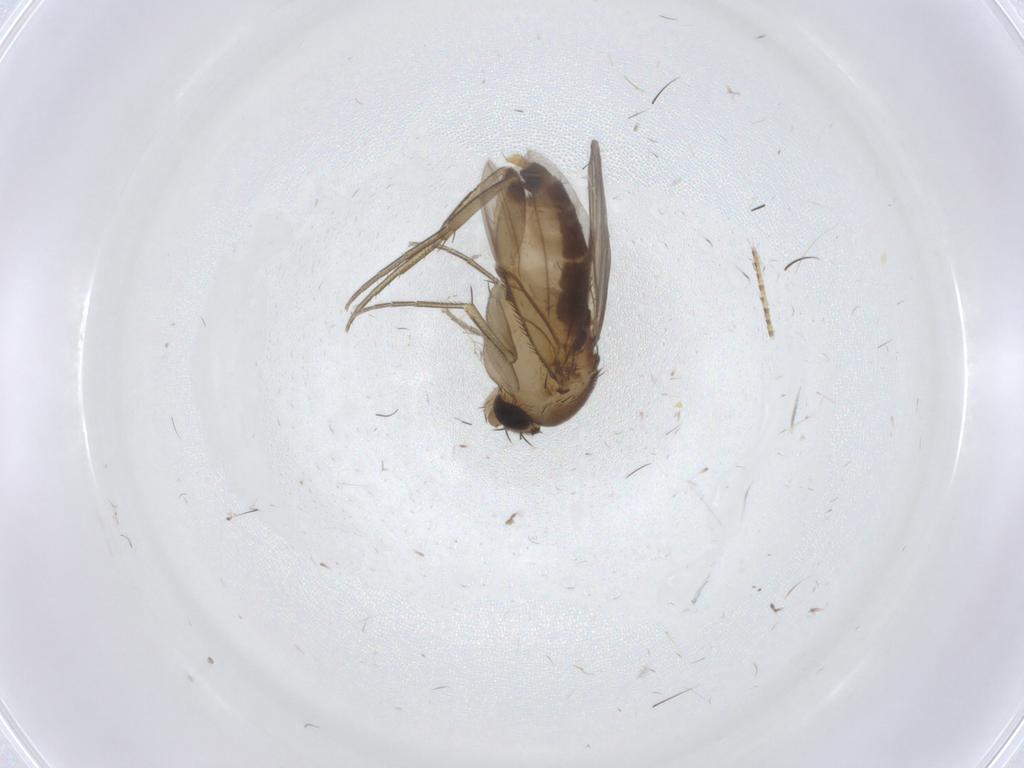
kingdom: Animalia
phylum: Arthropoda
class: Insecta
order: Diptera
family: Phoridae
